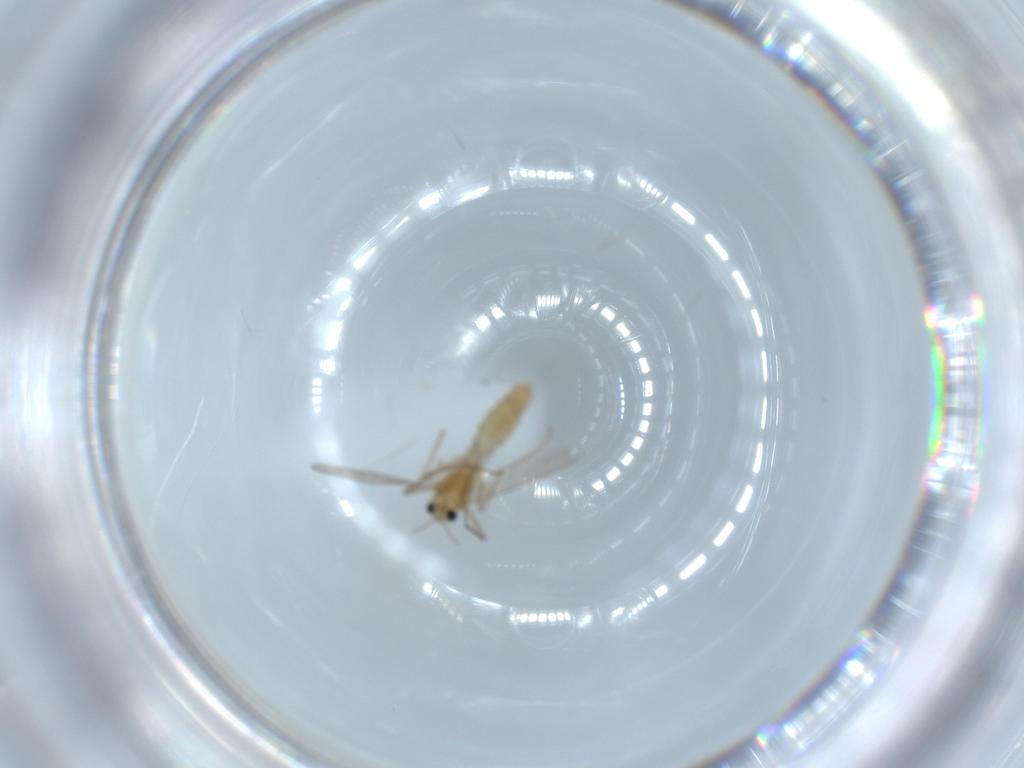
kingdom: Animalia
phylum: Arthropoda
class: Insecta
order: Diptera
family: Chironomidae
